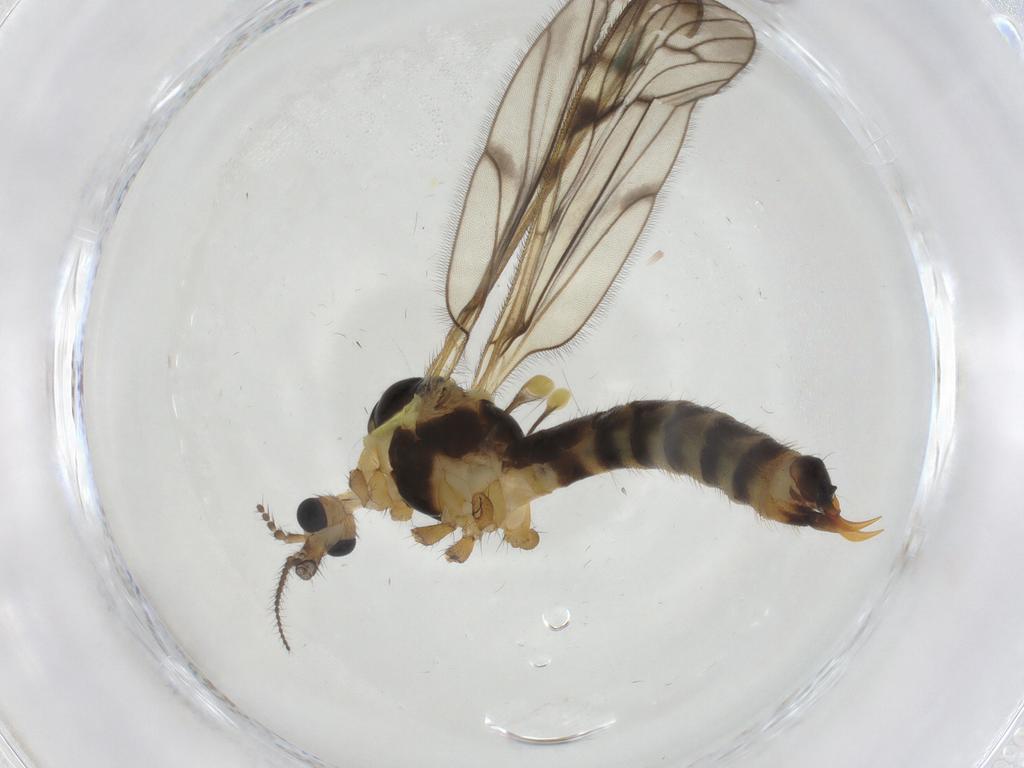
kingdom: Animalia
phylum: Arthropoda
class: Insecta
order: Diptera
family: Limoniidae
